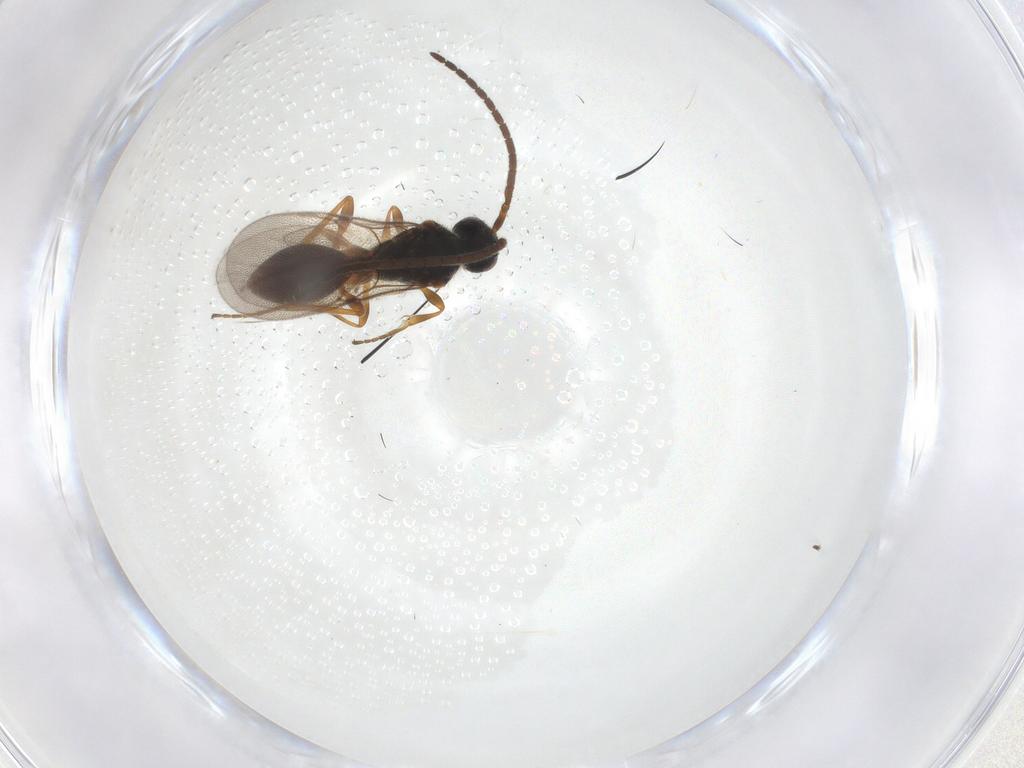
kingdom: Animalia
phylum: Arthropoda
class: Insecta
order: Hymenoptera
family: Diapriidae
